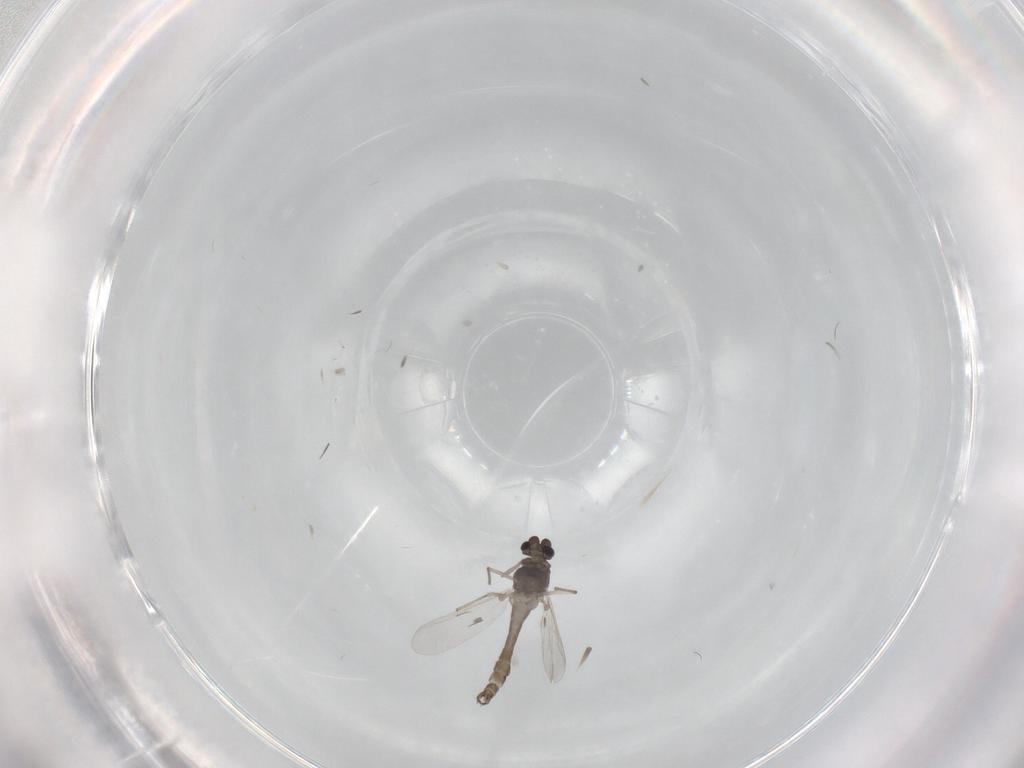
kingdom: Animalia
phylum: Arthropoda
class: Insecta
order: Diptera
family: Chironomidae
